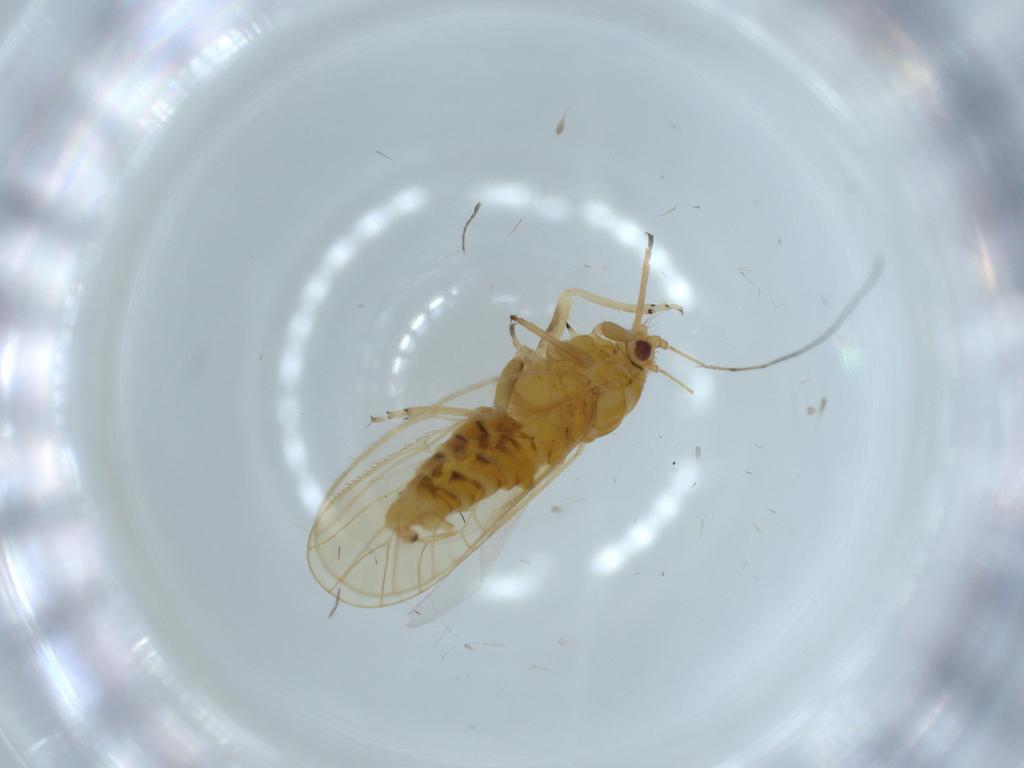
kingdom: Animalia
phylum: Arthropoda
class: Insecta
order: Hemiptera
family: Psyllidae
